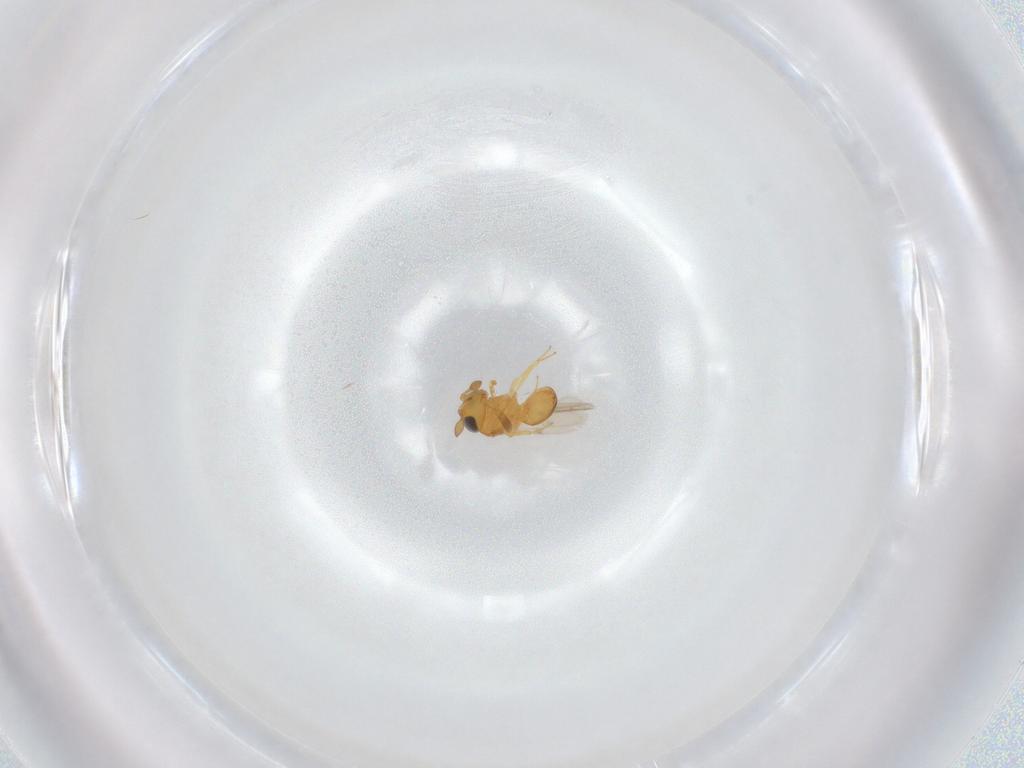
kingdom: Animalia
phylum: Arthropoda
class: Insecta
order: Hymenoptera
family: Scelionidae
